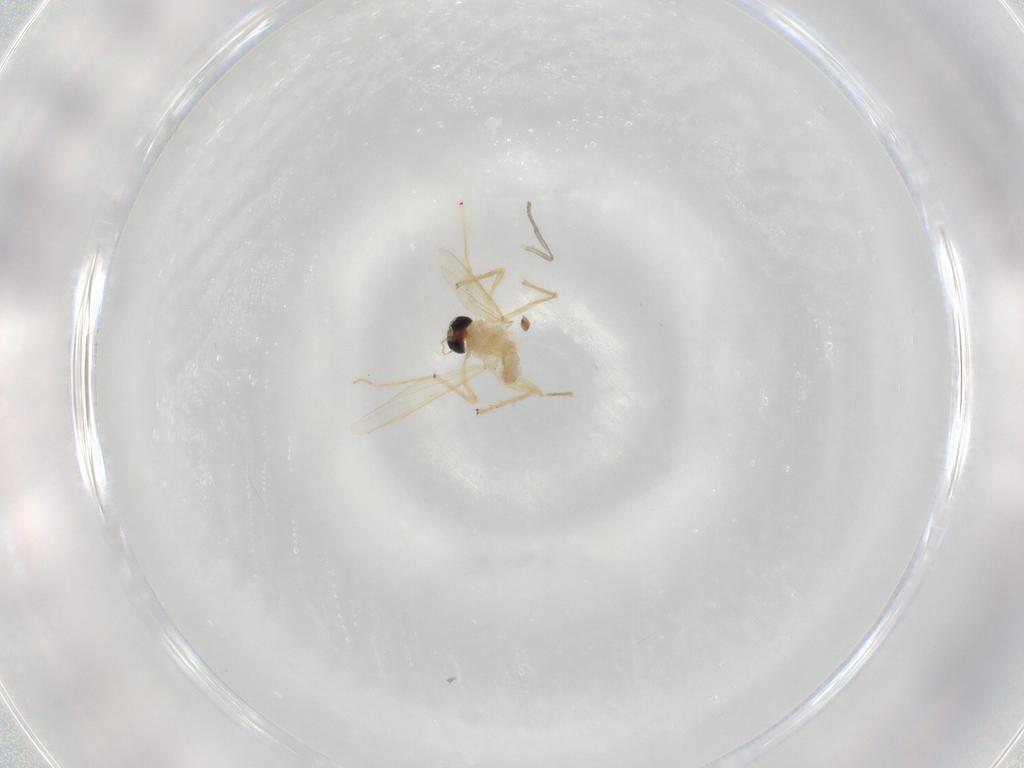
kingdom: Animalia
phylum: Arthropoda
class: Insecta
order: Diptera
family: Chironomidae
